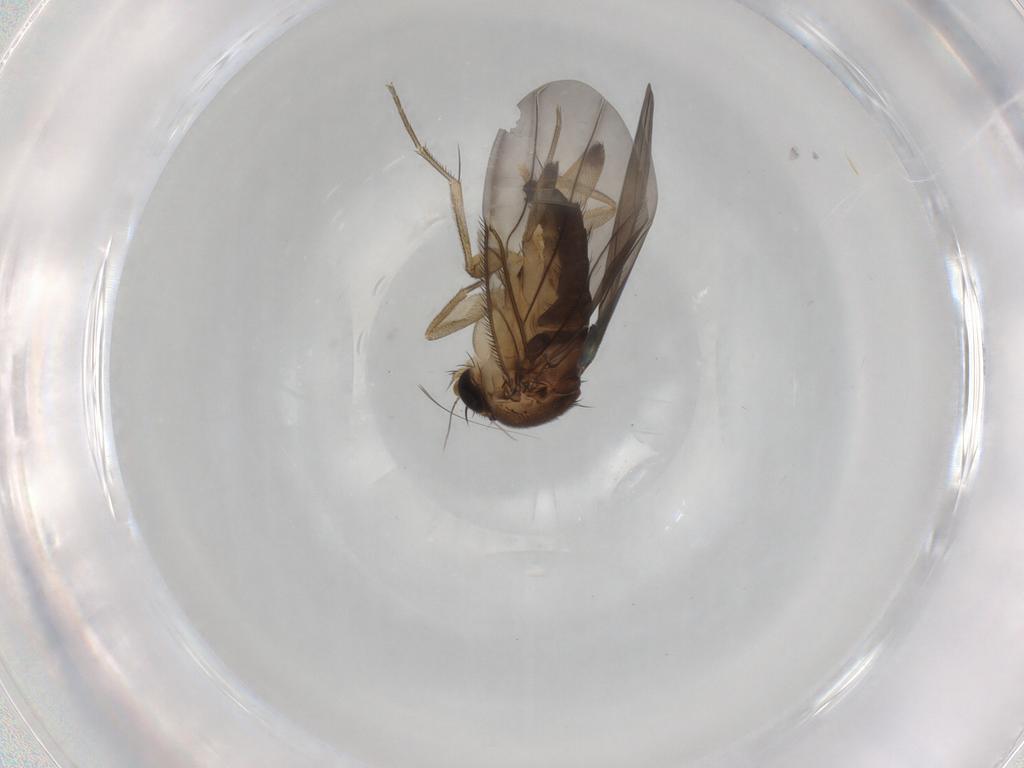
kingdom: Animalia
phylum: Arthropoda
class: Insecta
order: Diptera
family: Phoridae
